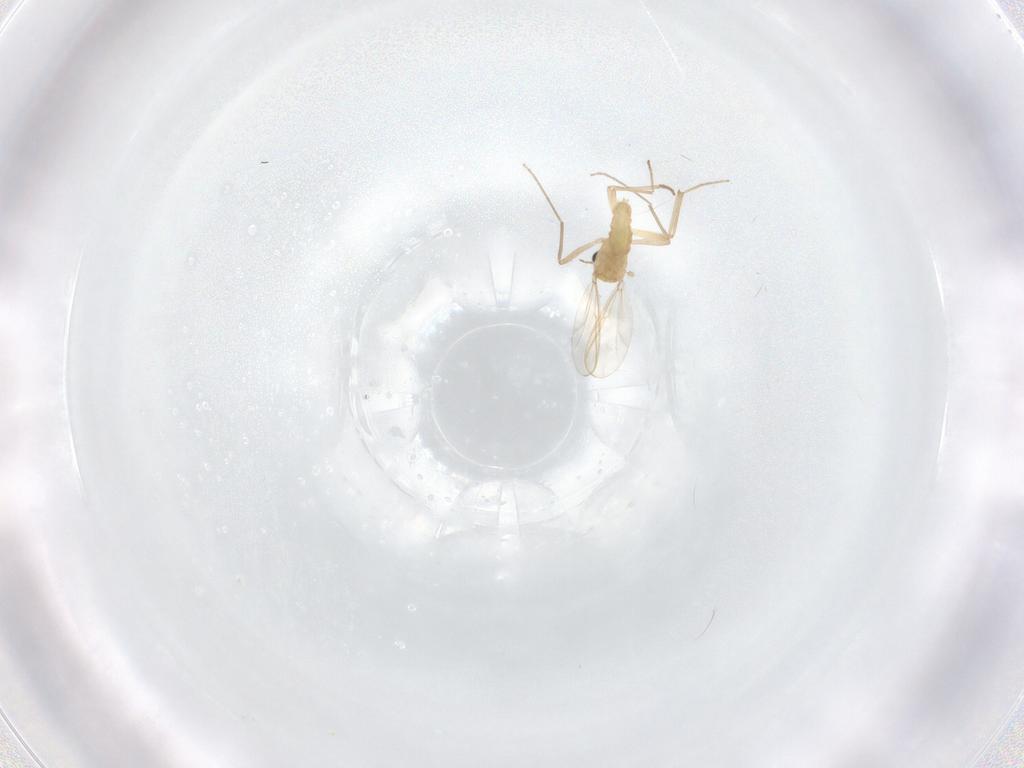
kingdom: Animalia
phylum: Arthropoda
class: Insecta
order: Diptera
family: Chironomidae
